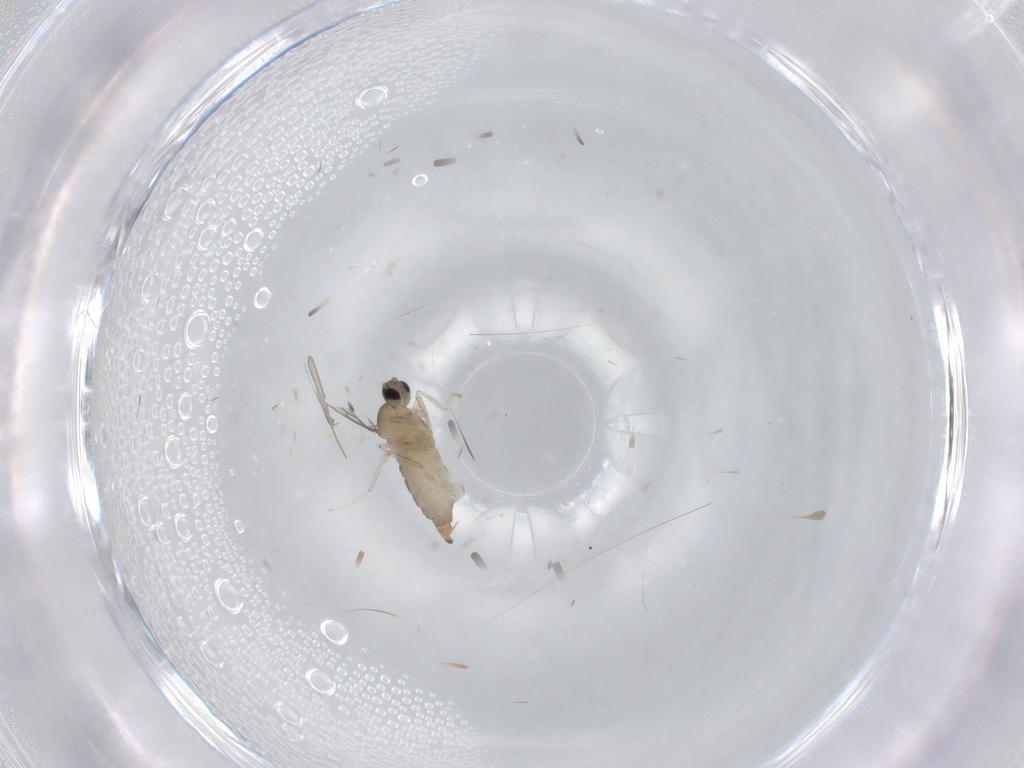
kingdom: Animalia
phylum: Arthropoda
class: Insecta
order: Diptera
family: Cecidomyiidae
